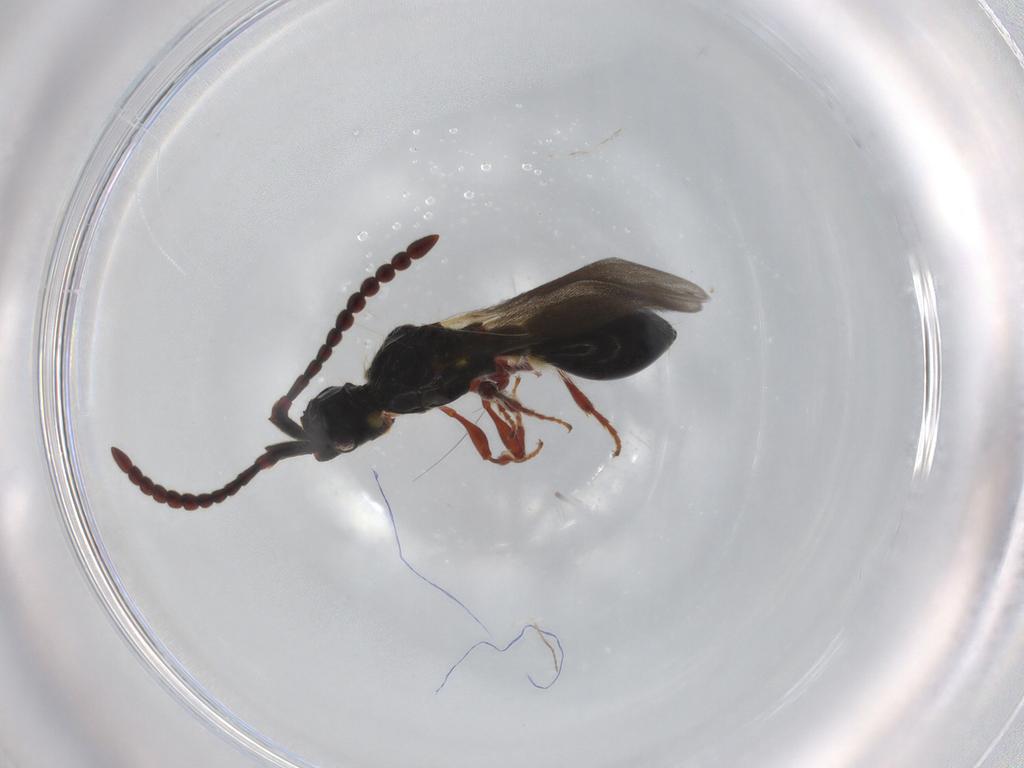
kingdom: Animalia
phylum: Arthropoda
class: Insecta
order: Hymenoptera
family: Diapriidae
